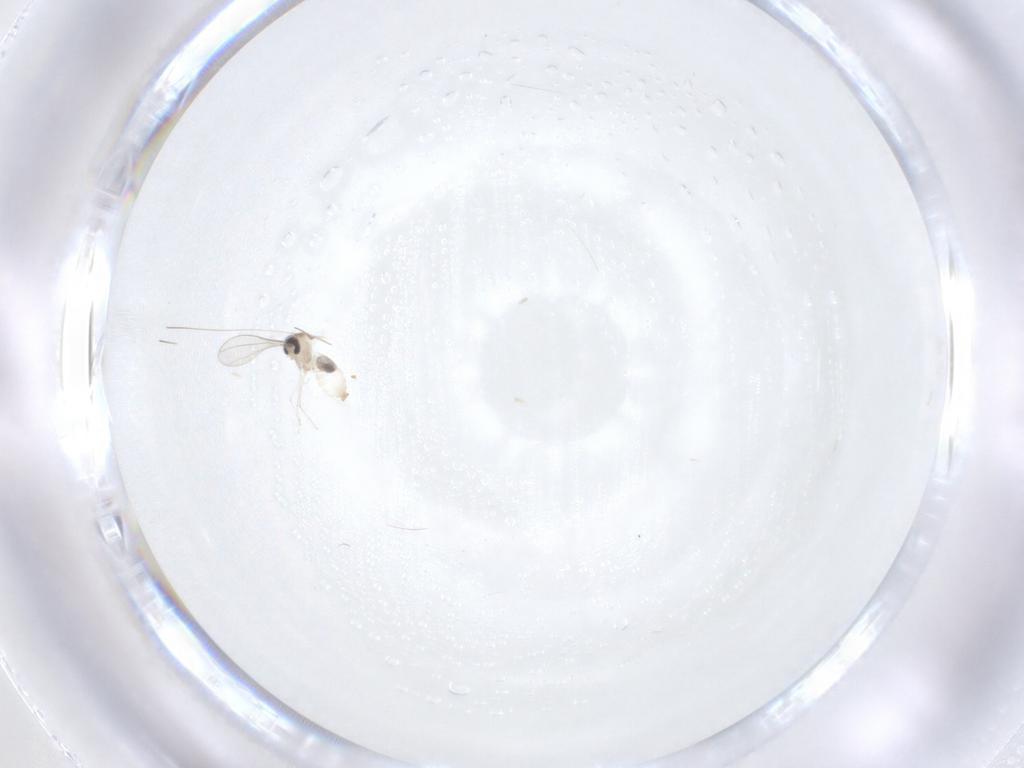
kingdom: Animalia
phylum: Arthropoda
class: Insecta
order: Diptera
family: Cecidomyiidae
